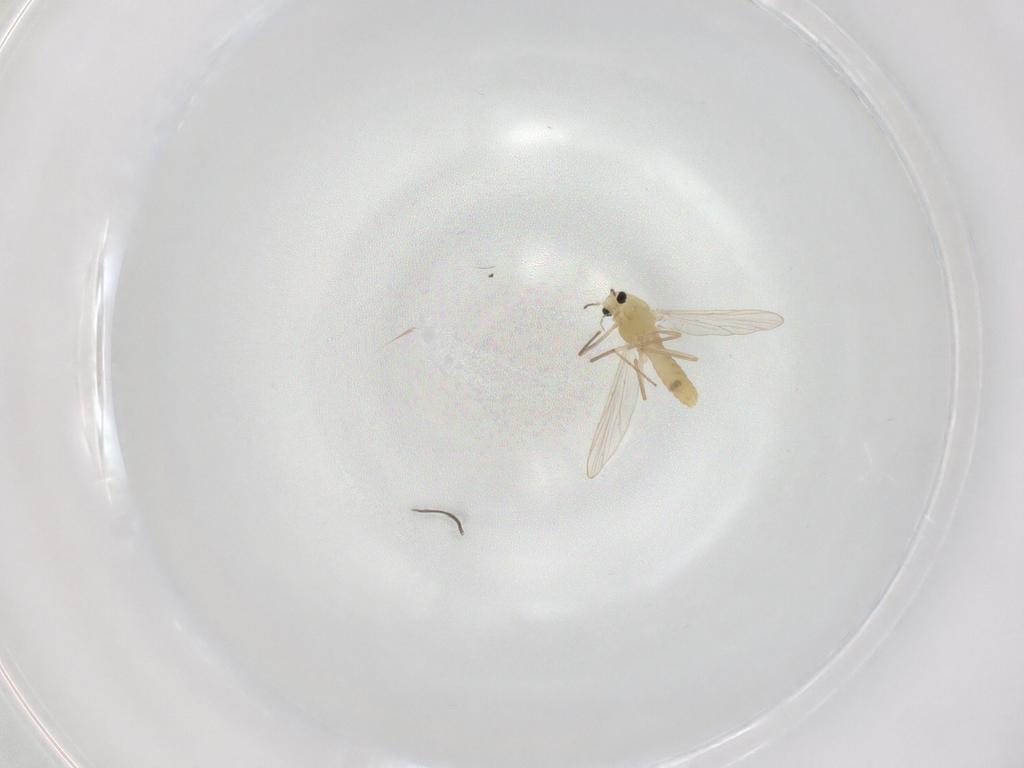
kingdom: Animalia
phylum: Arthropoda
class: Insecta
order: Diptera
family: Chironomidae
